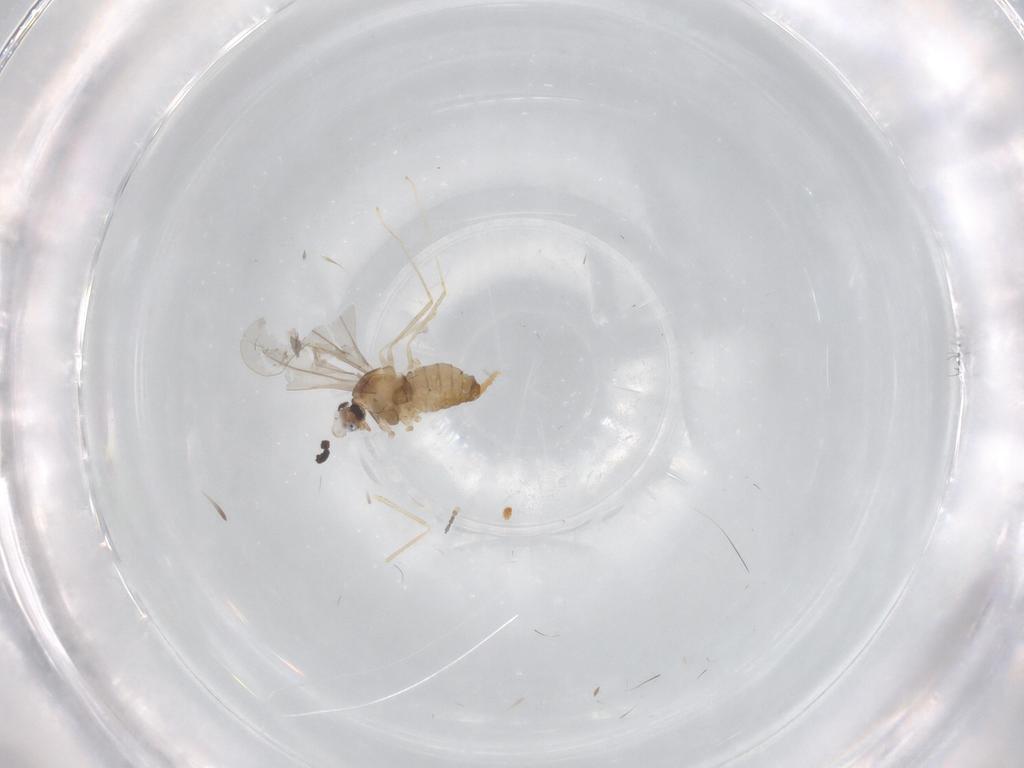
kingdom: Animalia
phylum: Arthropoda
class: Insecta
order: Diptera
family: Cecidomyiidae
